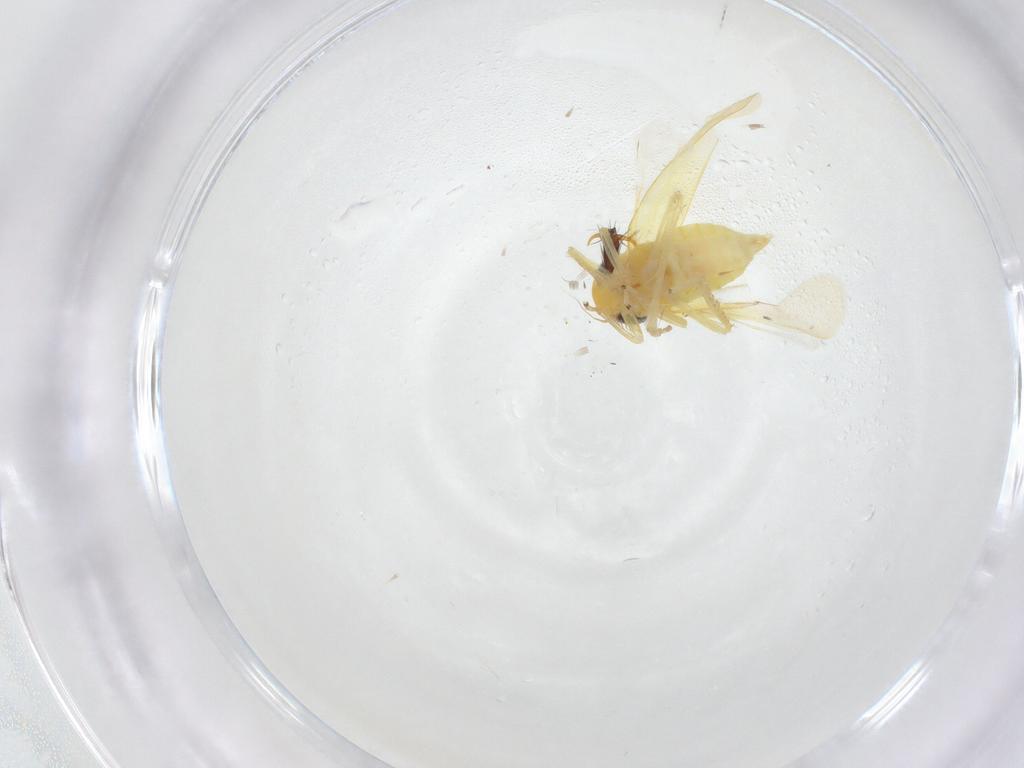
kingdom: Animalia
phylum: Arthropoda
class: Insecta
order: Hemiptera
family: Cicadellidae
